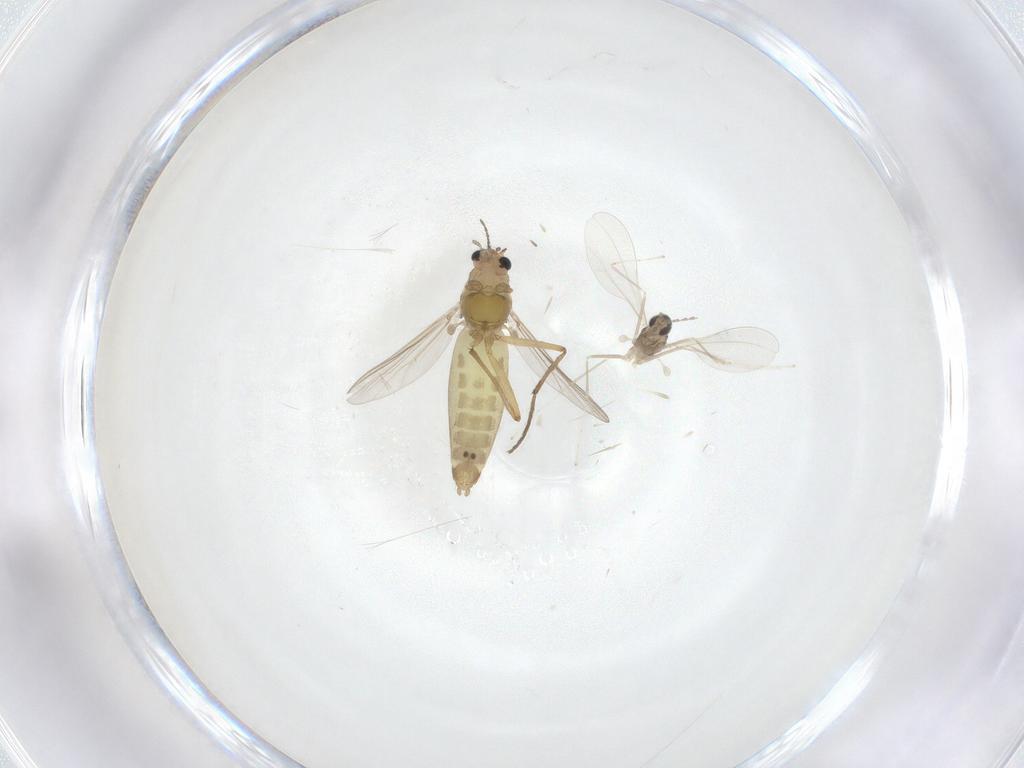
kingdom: Animalia
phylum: Arthropoda
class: Insecta
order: Diptera
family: Chironomidae
